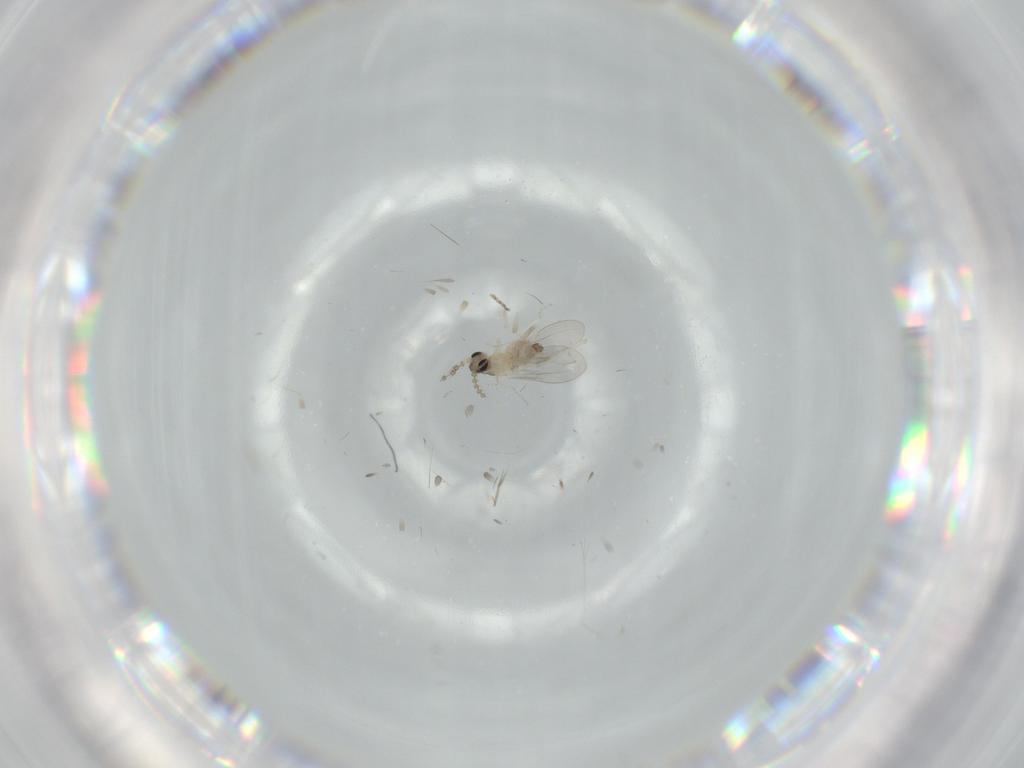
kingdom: Animalia
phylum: Arthropoda
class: Insecta
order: Diptera
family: Cecidomyiidae
